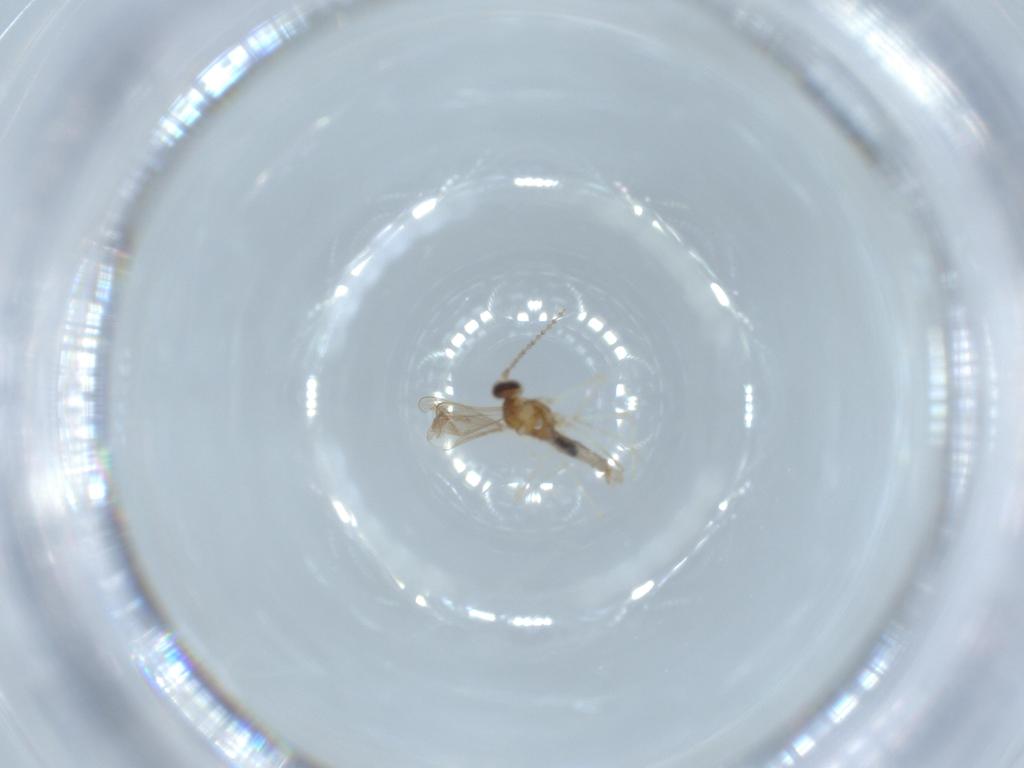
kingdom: Animalia
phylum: Arthropoda
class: Insecta
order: Diptera
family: Cecidomyiidae
